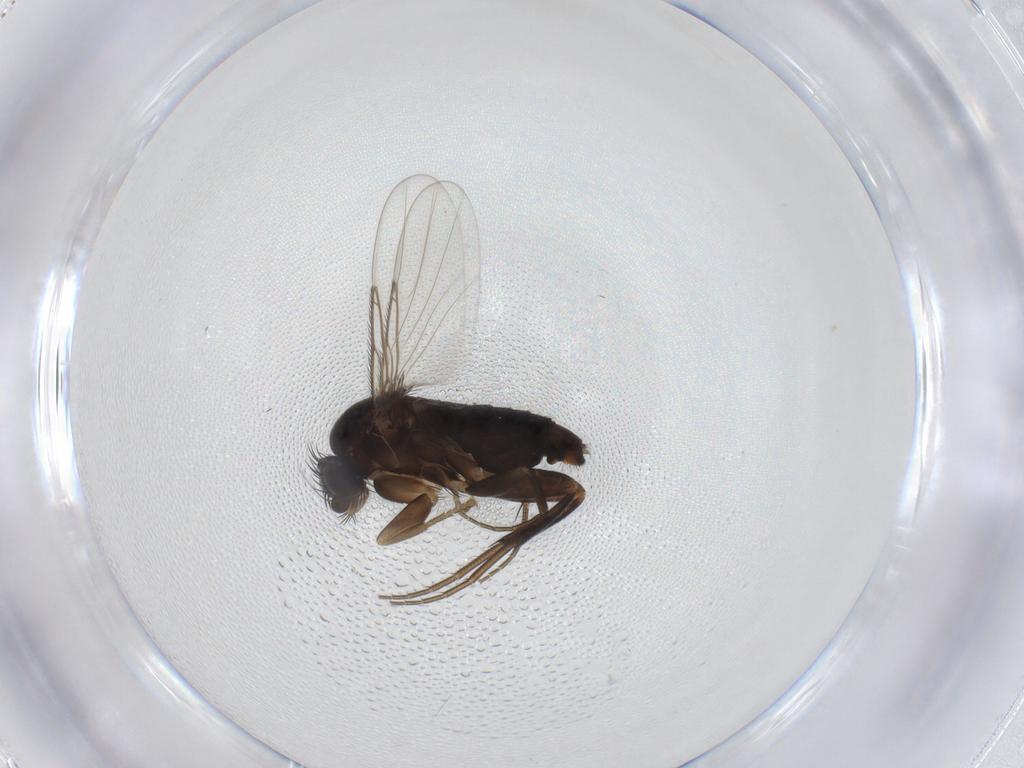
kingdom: Animalia
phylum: Arthropoda
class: Insecta
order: Diptera
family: Phoridae
